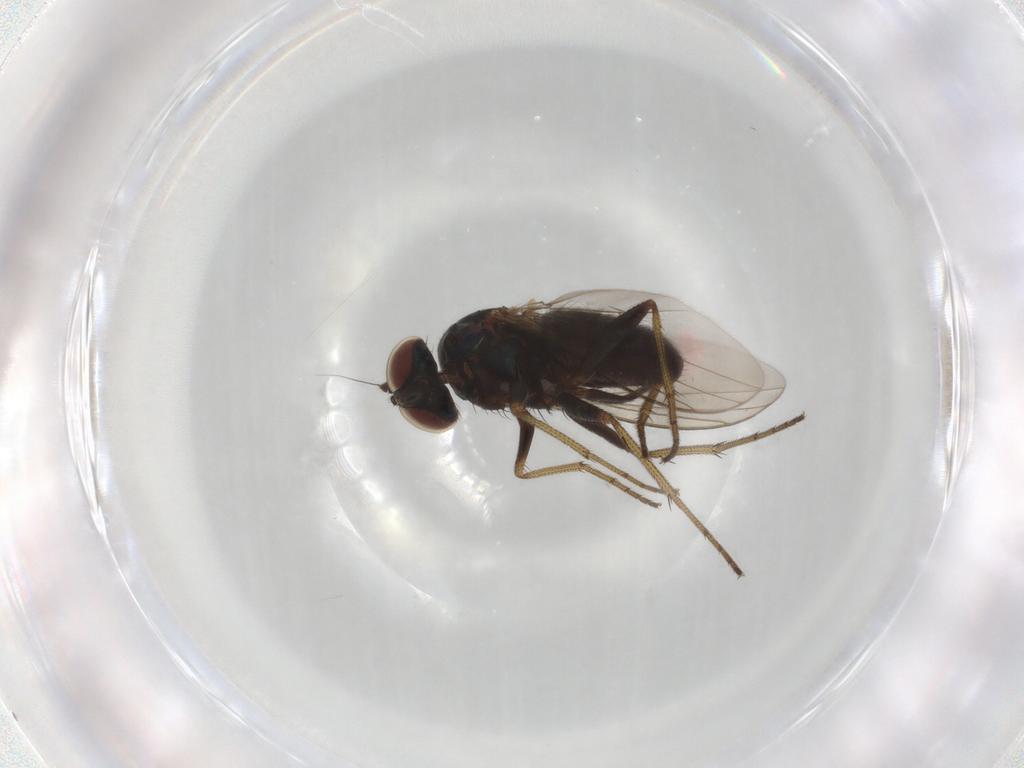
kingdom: Animalia
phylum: Arthropoda
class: Insecta
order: Diptera
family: Dolichopodidae
